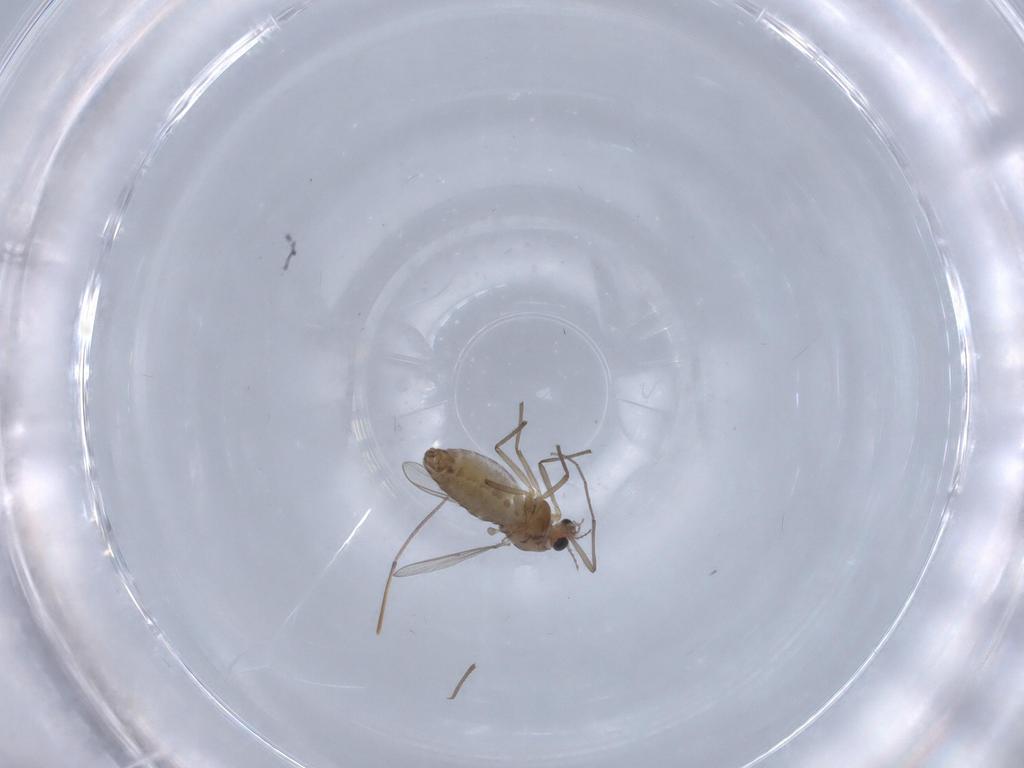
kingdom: Animalia
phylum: Arthropoda
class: Insecta
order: Diptera
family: Chironomidae
